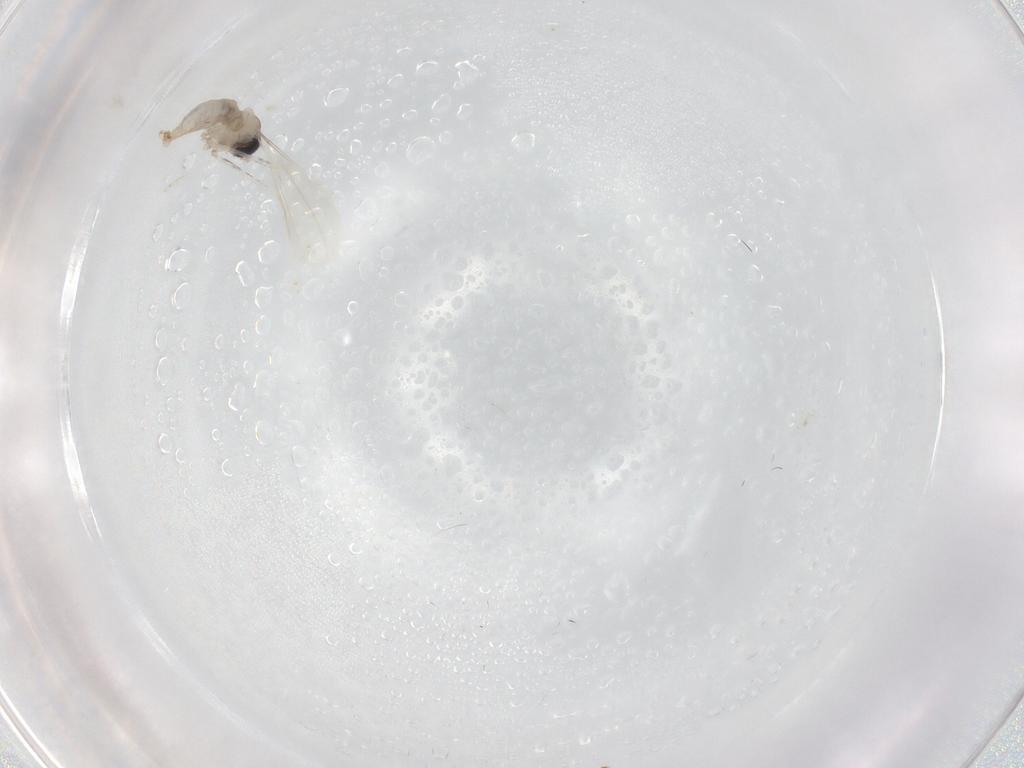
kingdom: Animalia
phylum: Arthropoda
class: Insecta
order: Diptera
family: Cecidomyiidae
